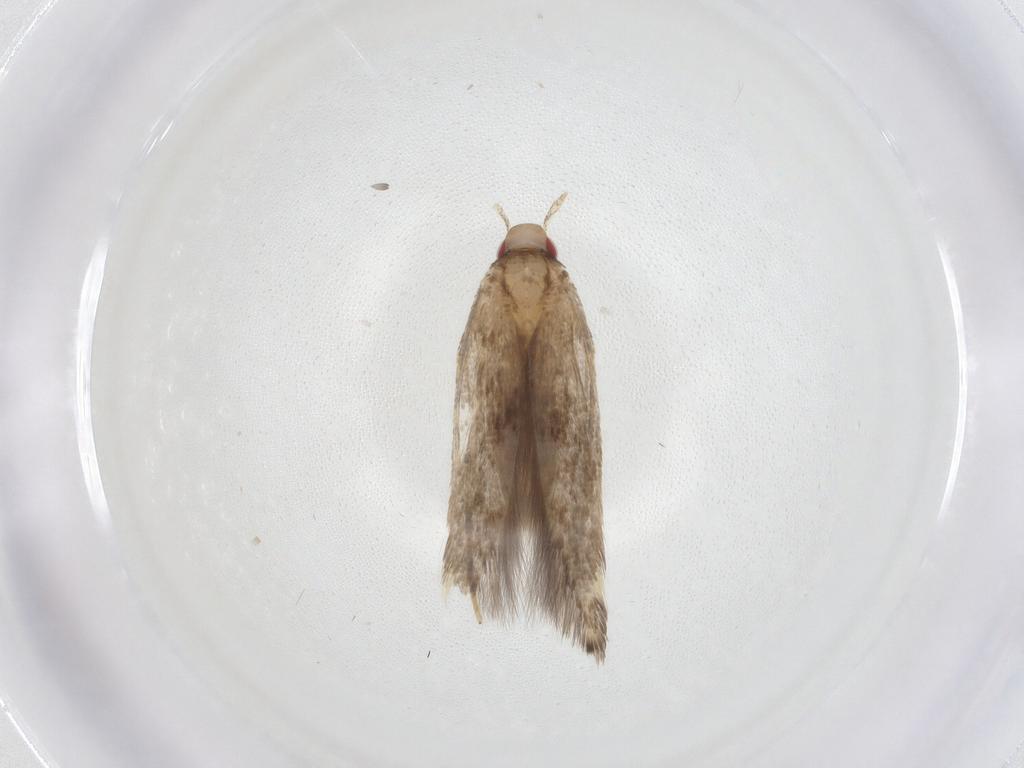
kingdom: Animalia
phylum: Arthropoda
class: Insecta
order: Lepidoptera
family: Cosmopterigidae
